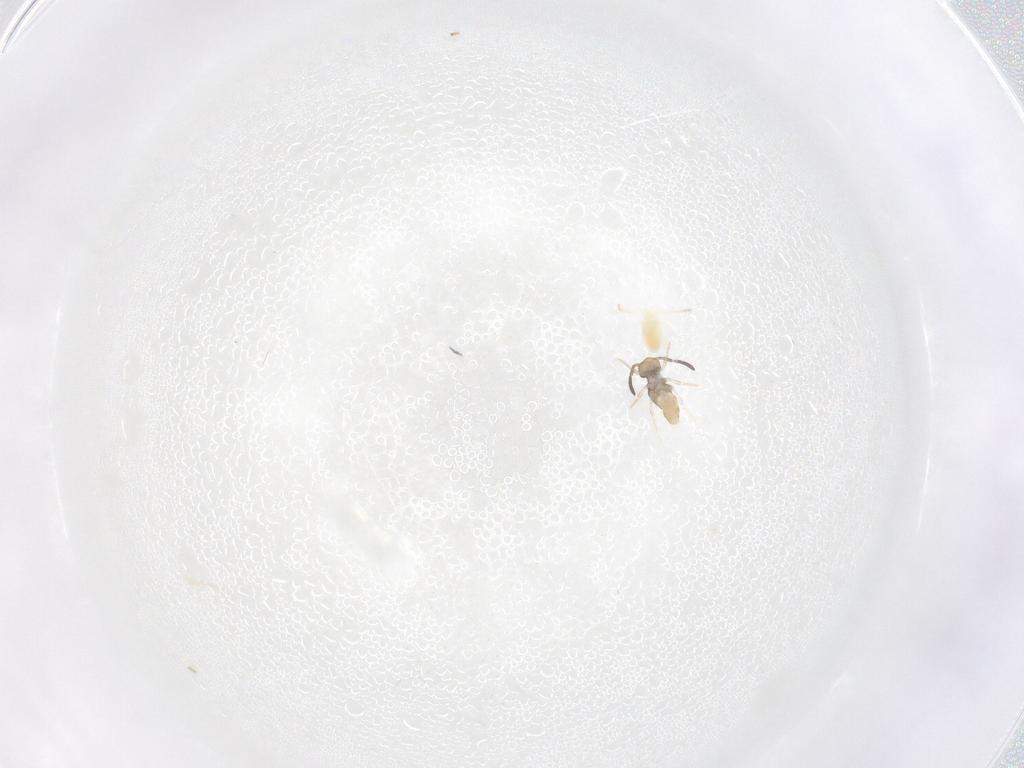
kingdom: Animalia
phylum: Arthropoda
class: Collembola
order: Symphypleona
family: Katiannidae
